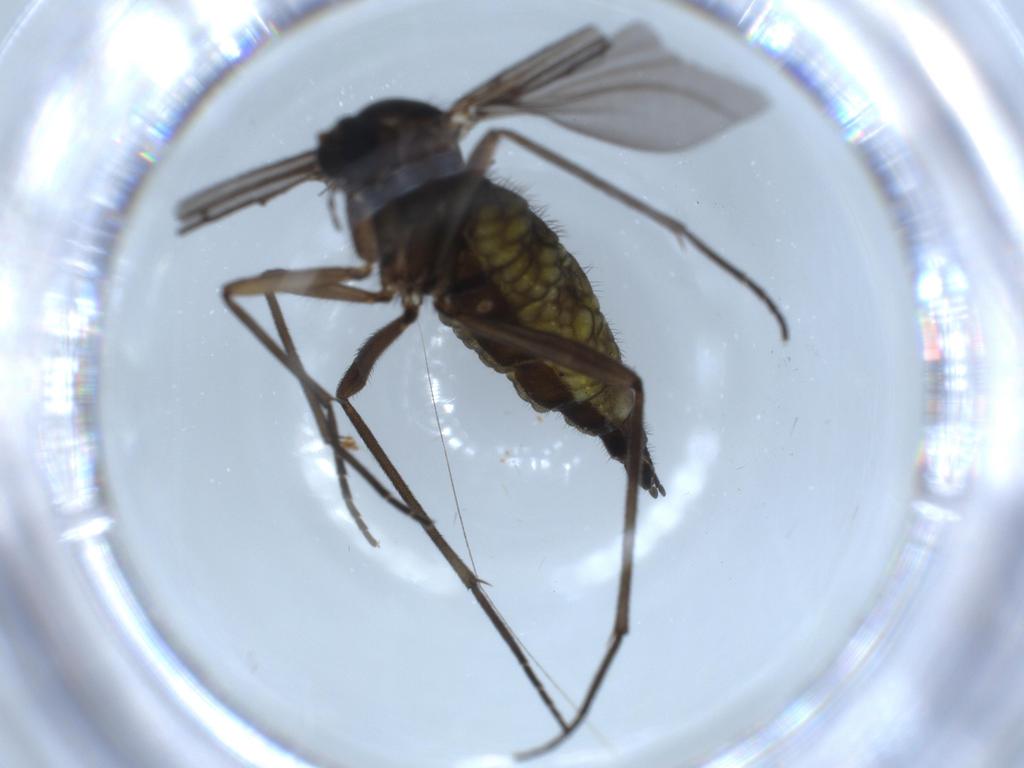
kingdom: Animalia
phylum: Arthropoda
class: Insecta
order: Diptera
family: Sciaridae
